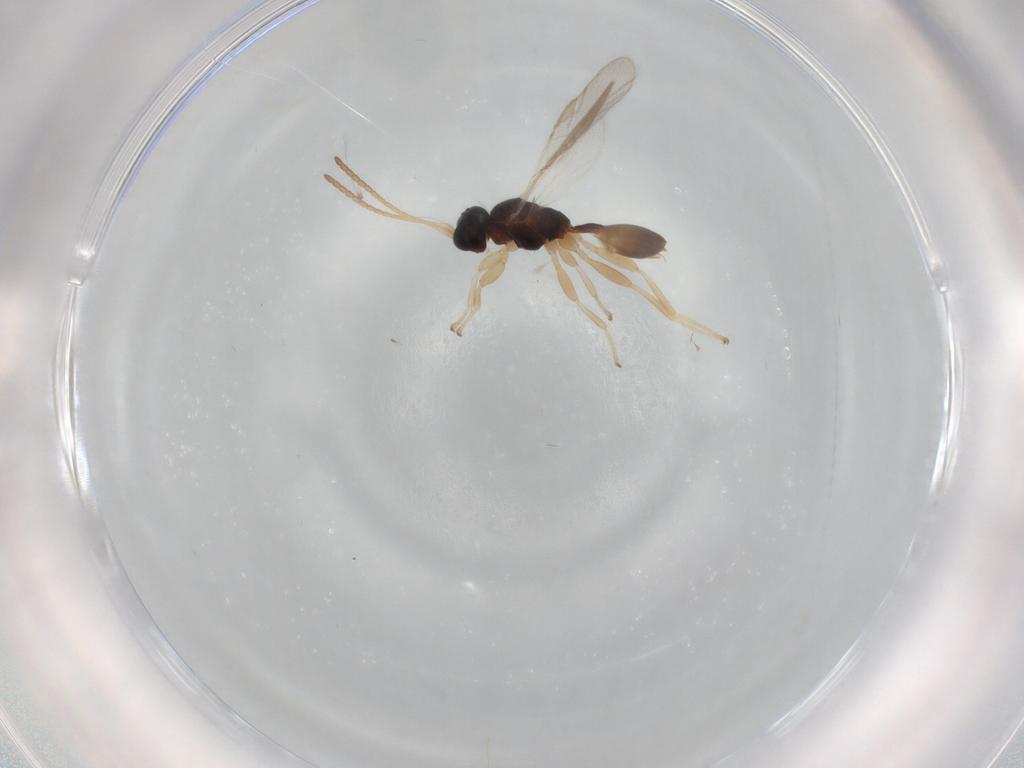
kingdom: Animalia
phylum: Arthropoda
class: Insecta
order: Hymenoptera
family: Braconidae
